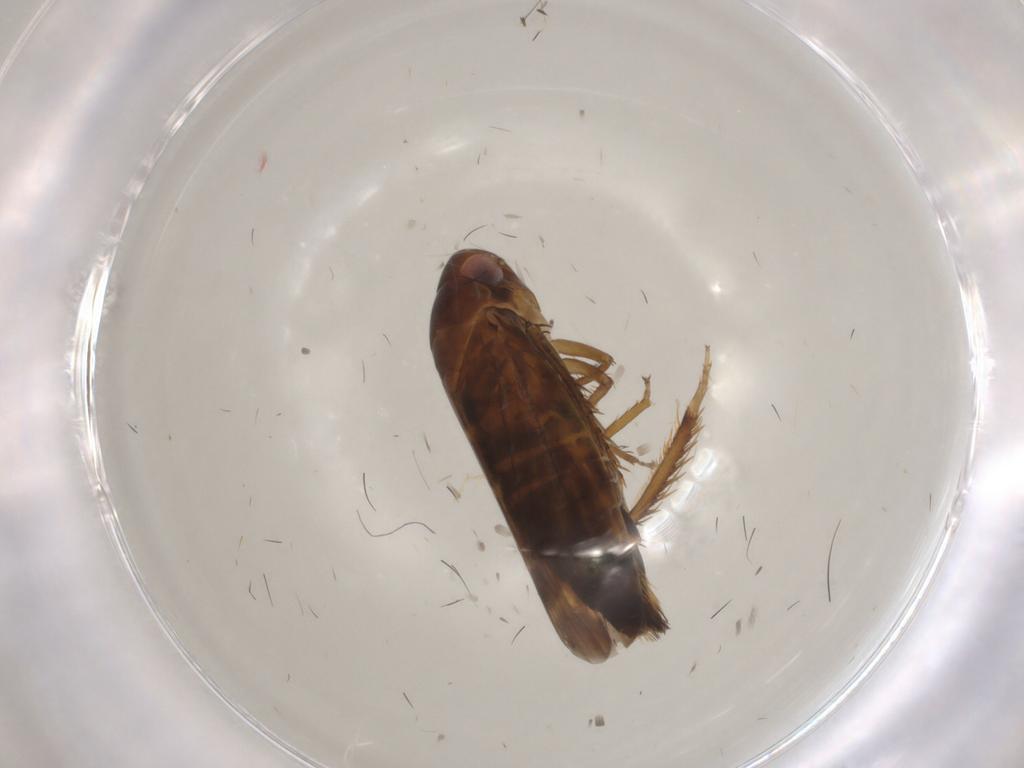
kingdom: Animalia
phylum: Arthropoda
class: Insecta
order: Hemiptera
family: Cicadellidae
